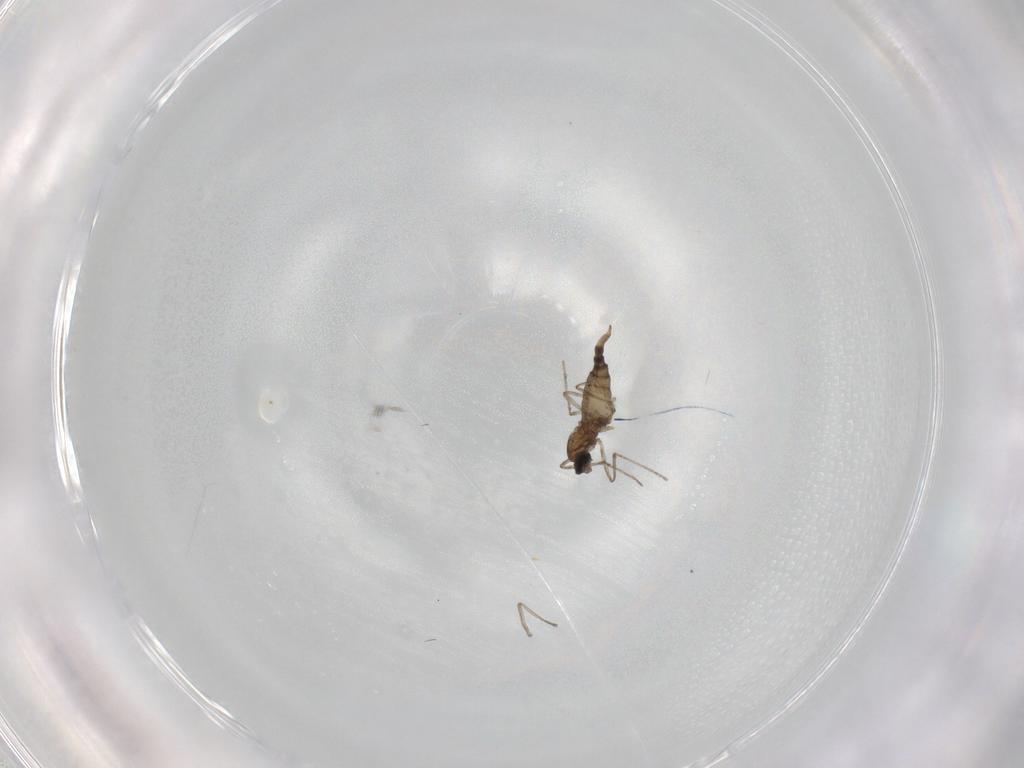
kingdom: Animalia
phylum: Arthropoda
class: Insecta
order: Diptera
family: Cecidomyiidae
